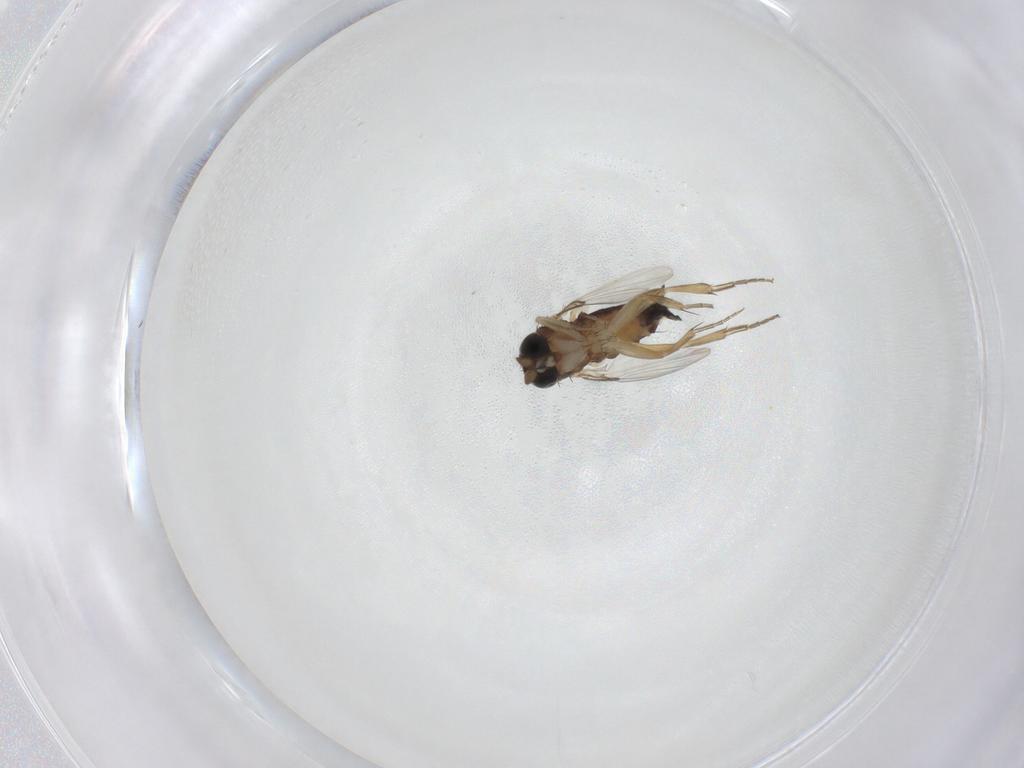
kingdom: Animalia
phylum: Arthropoda
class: Insecta
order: Diptera
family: Phoridae
